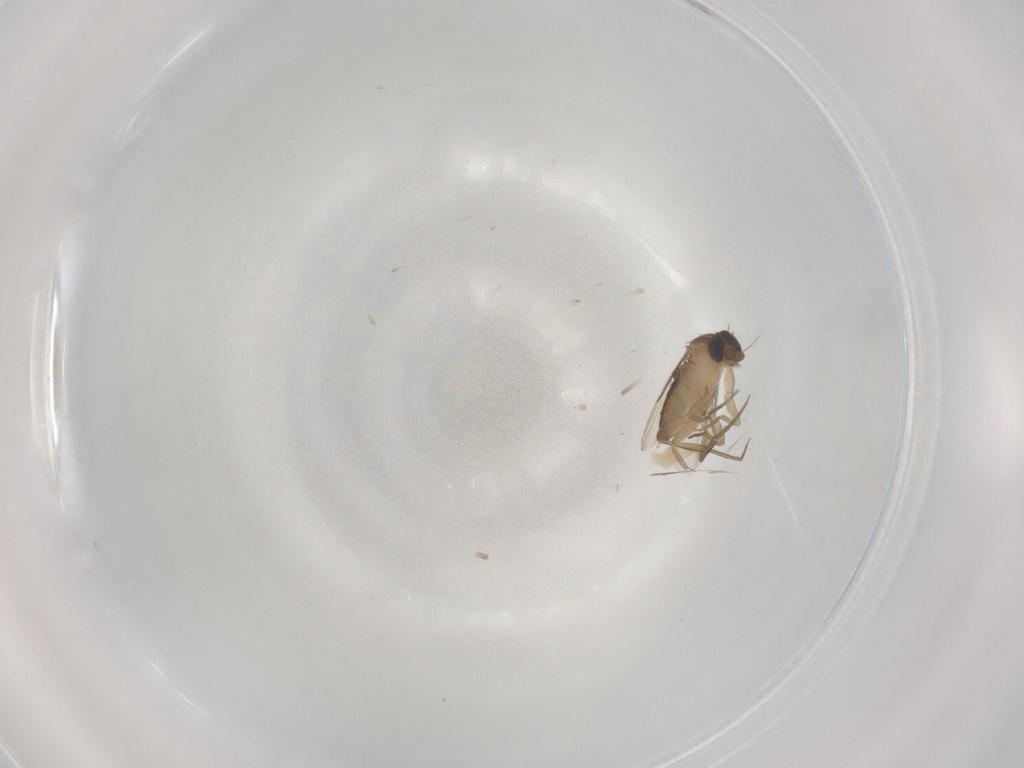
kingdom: Animalia
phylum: Arthropoda
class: Insecta
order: Diptera
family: Phoridae
